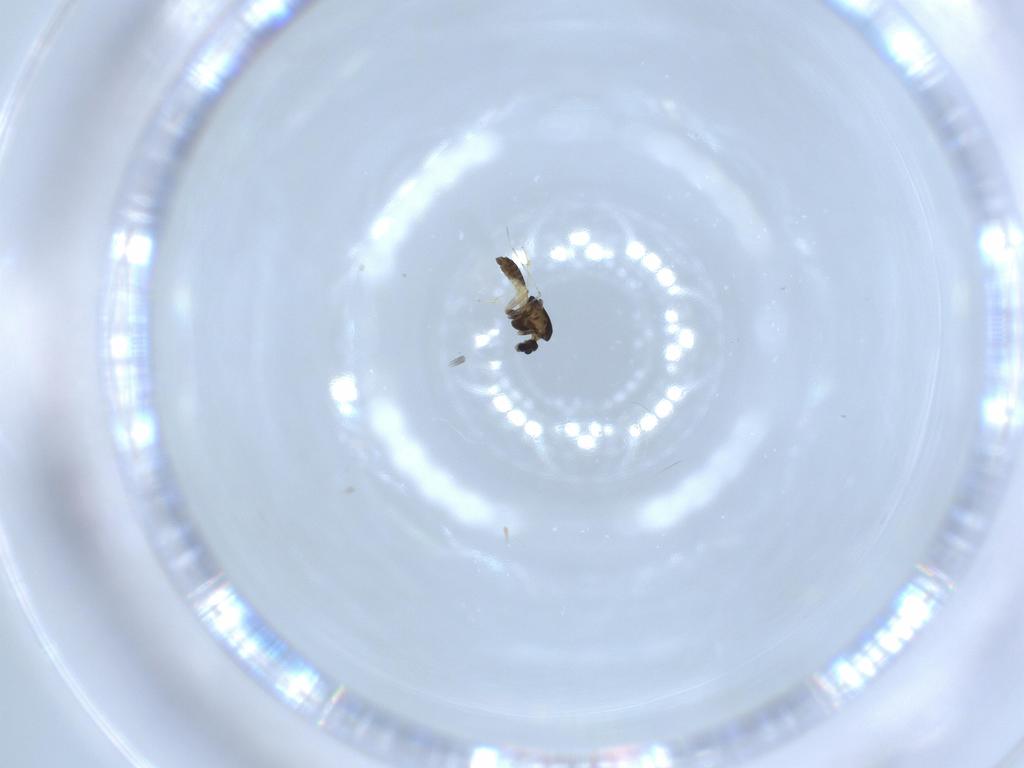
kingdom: Animalia
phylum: Arthropoda
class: Insecta
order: Diptera
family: Chironomidae
